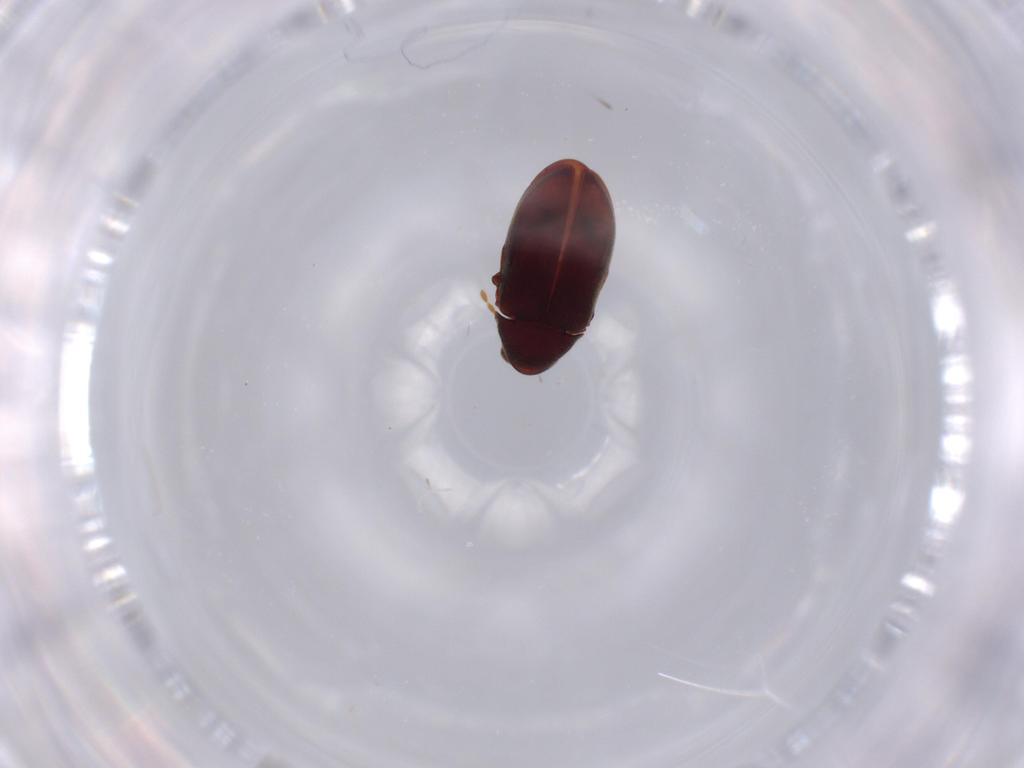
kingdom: Animalia
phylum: Arthropoda
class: Insecta
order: Coleoptera
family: Ptinidae
